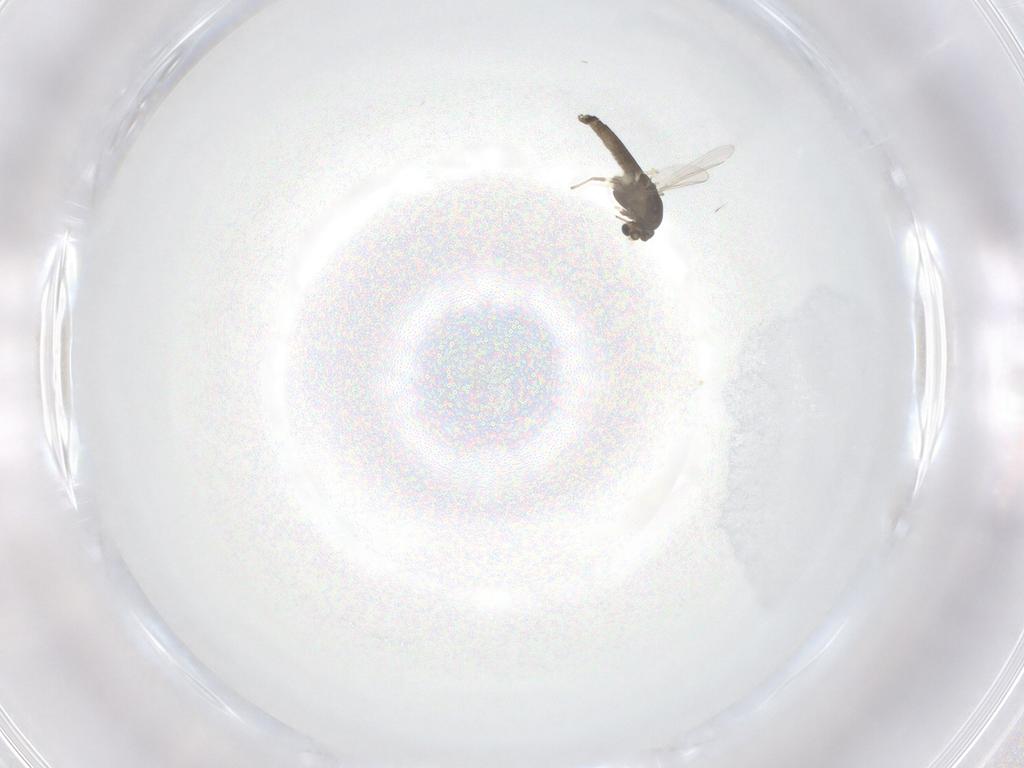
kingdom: Animalia
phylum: Arthropoda
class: Insecta
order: Diptera
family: Chironomidae
